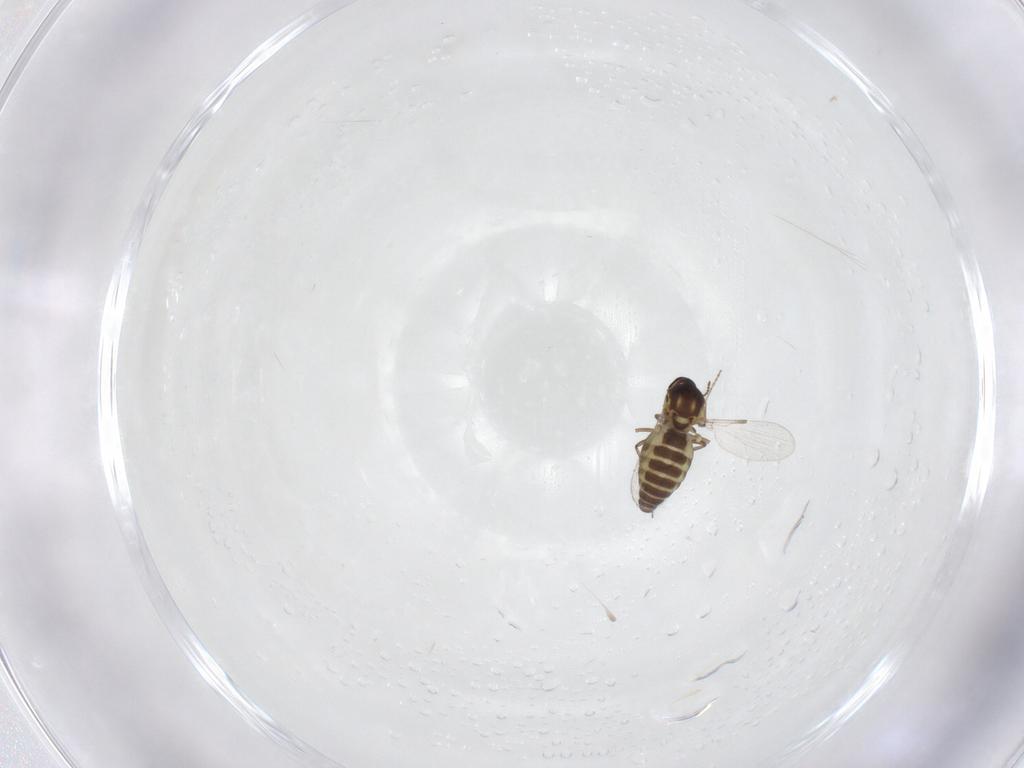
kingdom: Animalia
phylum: Arthropoda
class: Insecta
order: Diptera
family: Ceratopogonidae
